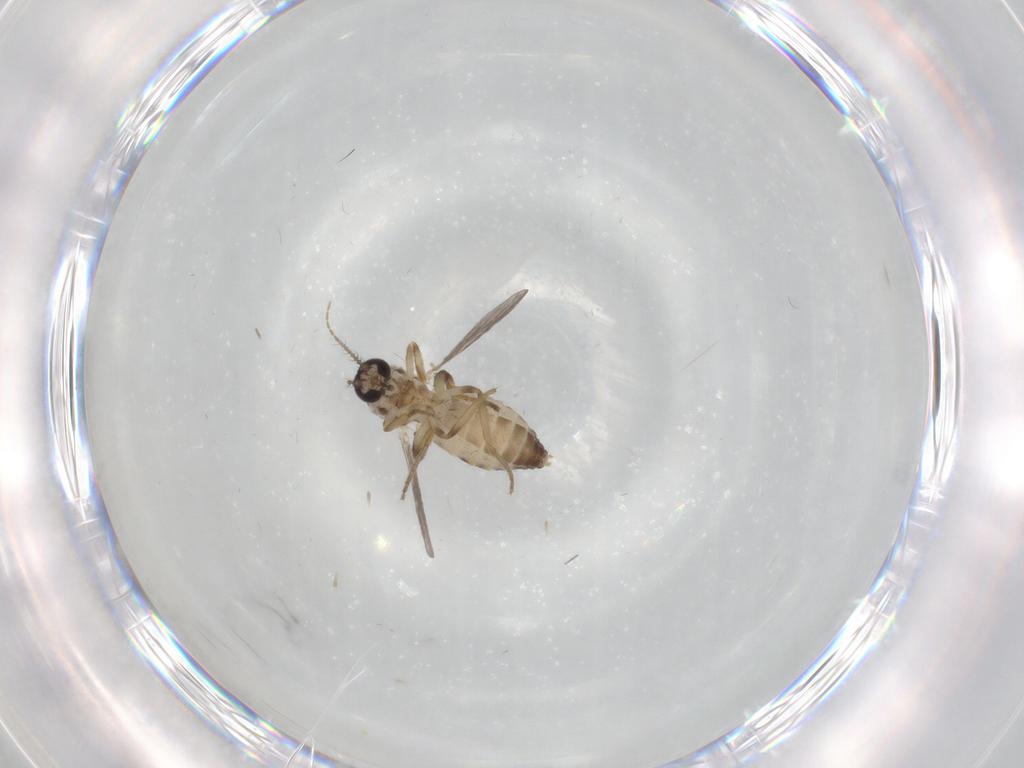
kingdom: Animalia
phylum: Arthropoda
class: Insecta
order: Diptera
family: Ceratopogonidae
